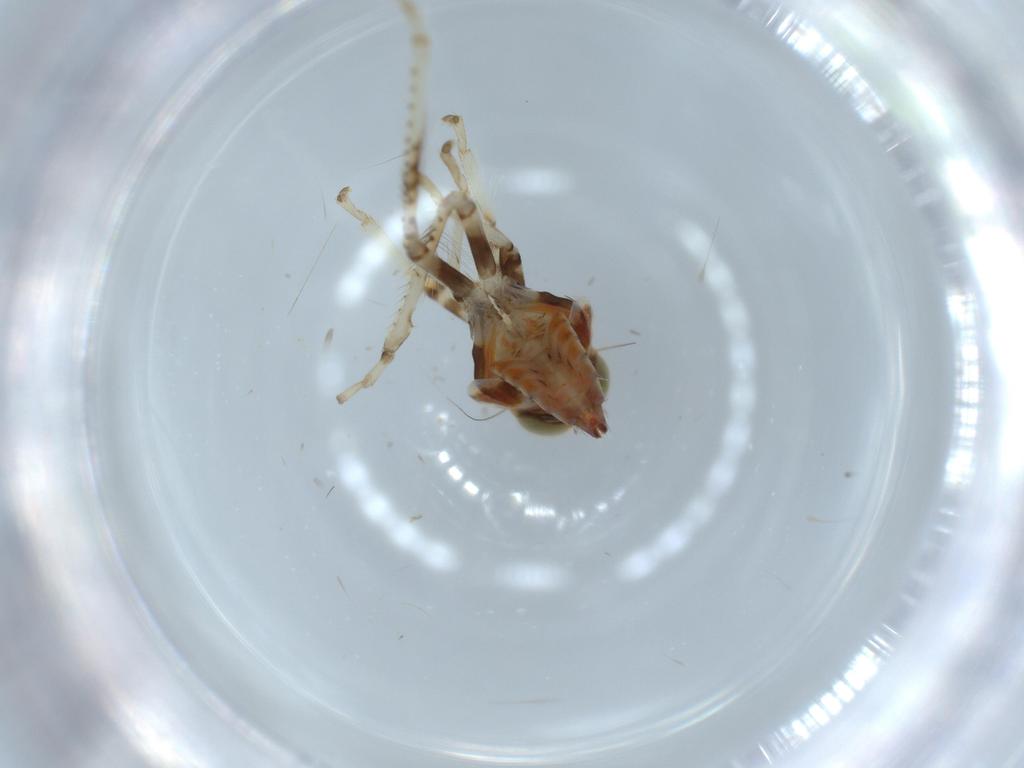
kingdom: Animalia
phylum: Arthropoda
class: Insecta
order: Hemiptera
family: Cicadellidae
